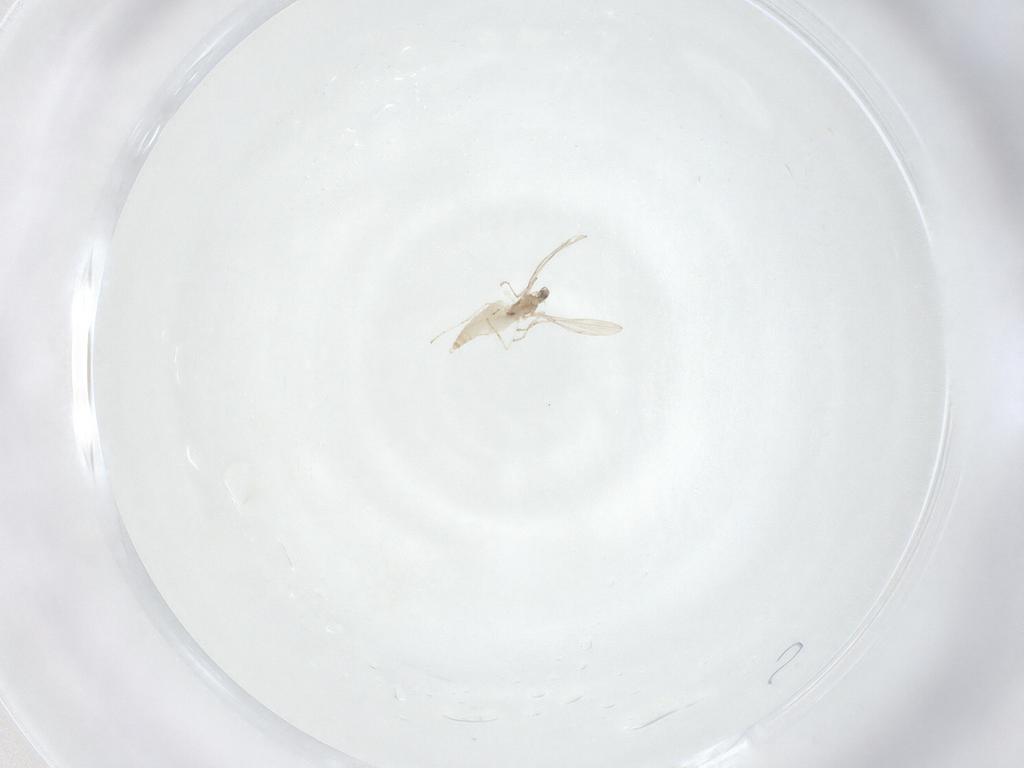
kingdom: Animalia
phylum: Arthropoda
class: Insecta
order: Diptera
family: Cecidomyiidae
